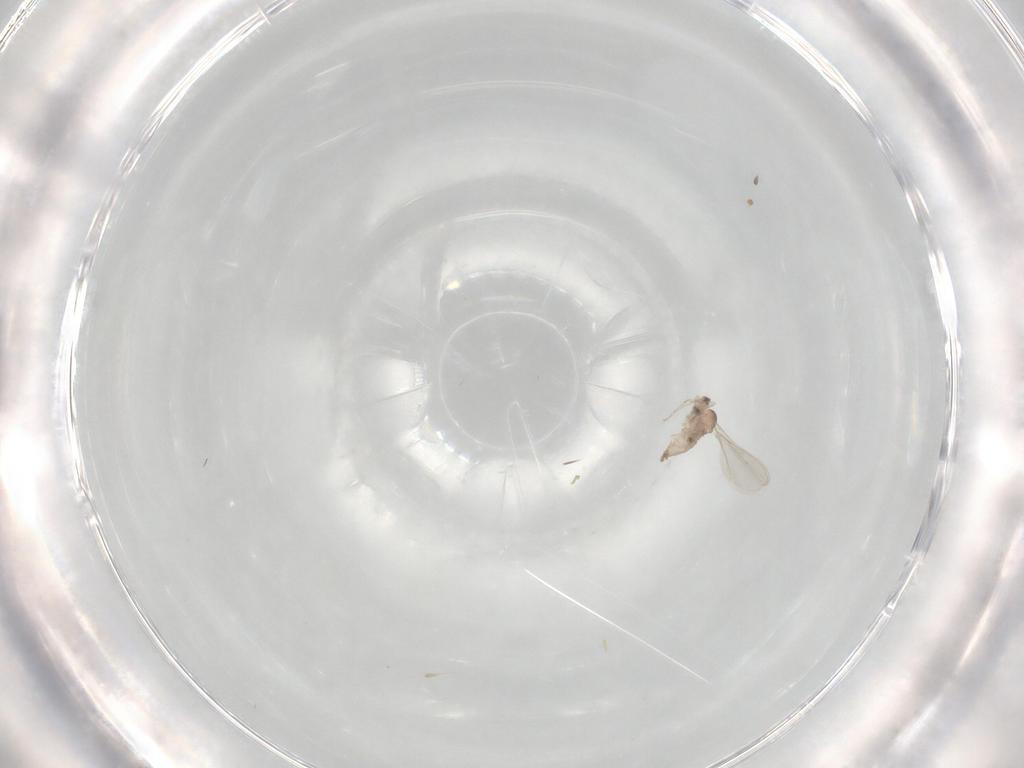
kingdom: Animalia
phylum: Arthropoda
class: Insecta
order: Diptera
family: Cecidomyiidae
